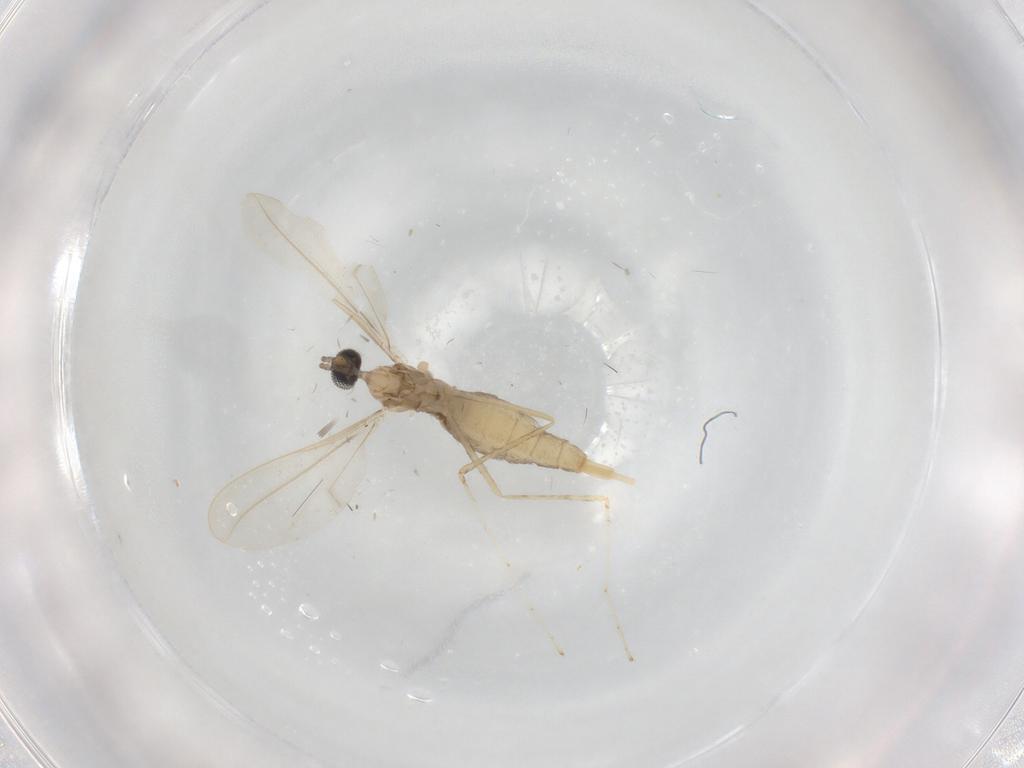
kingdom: Animalia
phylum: Arthropoda
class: Insecta
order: Diptera
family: Cecidomyiidae
